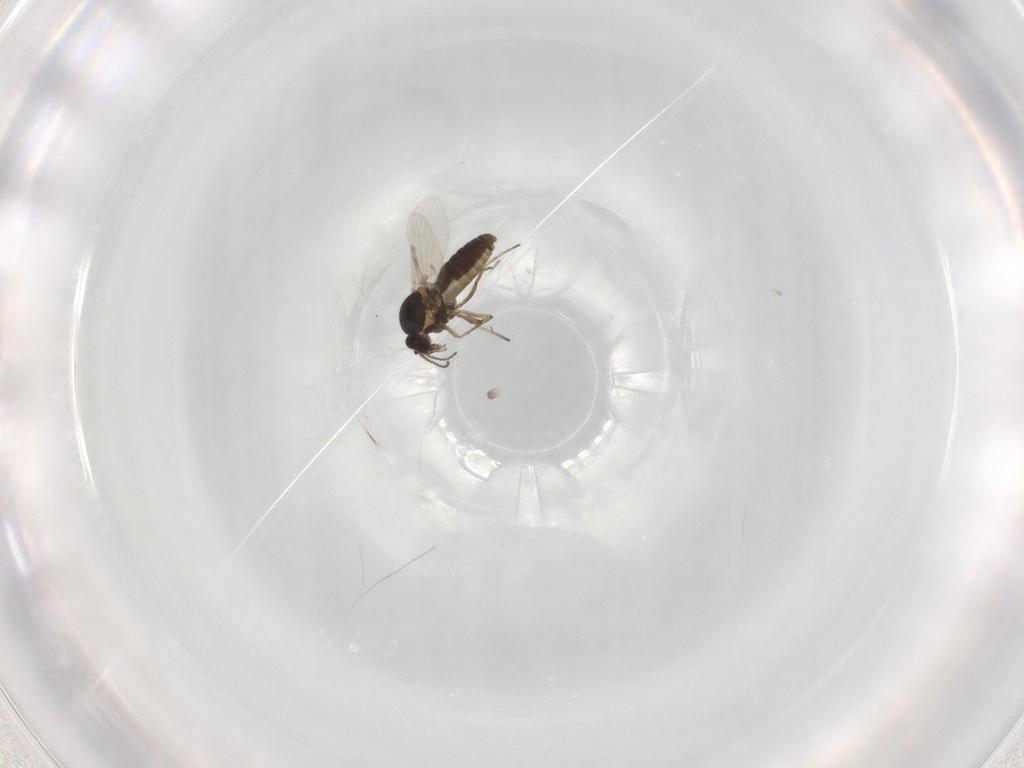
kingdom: Animalia
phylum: Arthropoda
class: Insecta
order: Diptera
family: Ceratopogonidae
